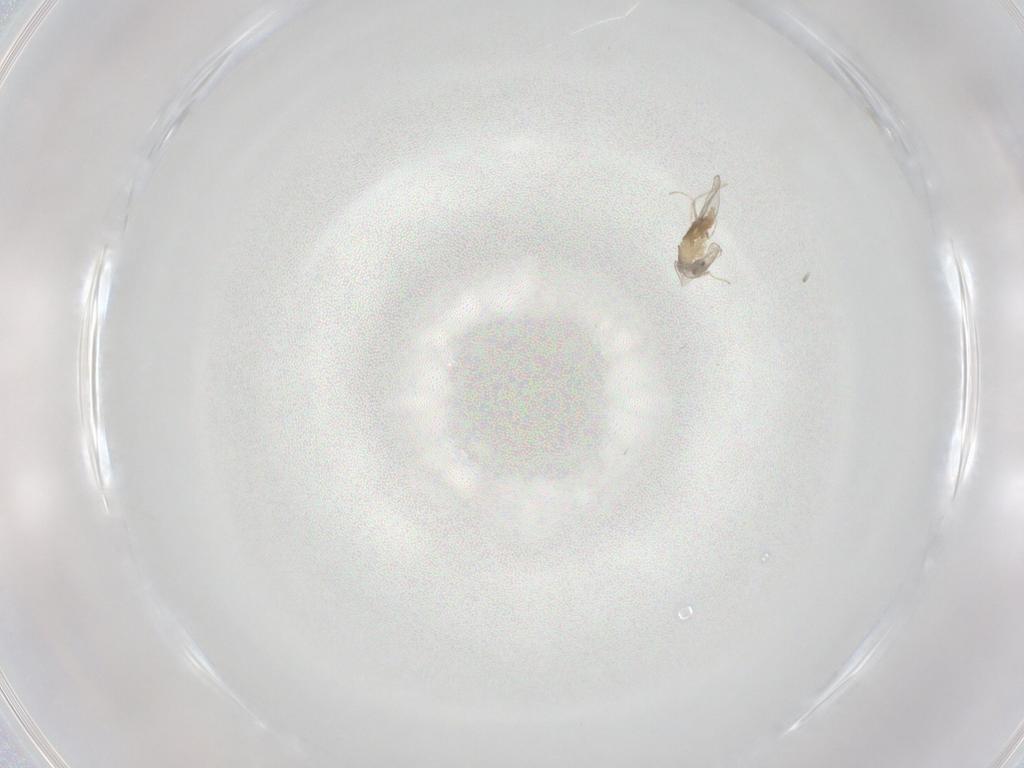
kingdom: Animalia
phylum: Arthropoda
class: Insecta
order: Diptera
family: Cecidomyiidae
